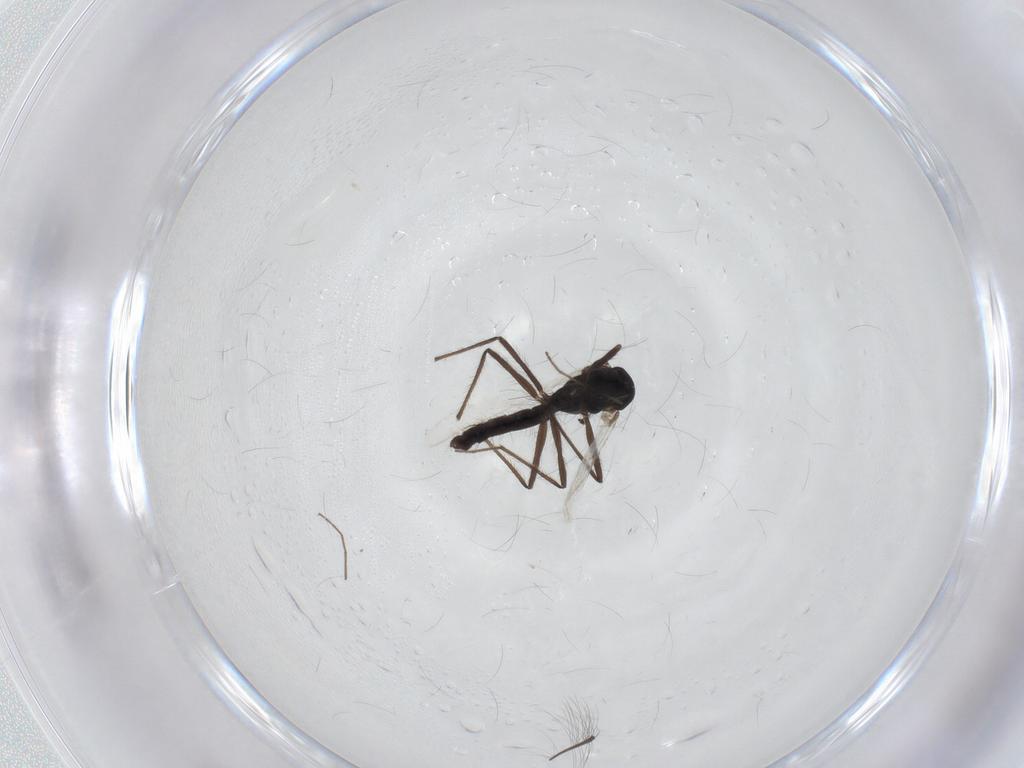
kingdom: Animalia
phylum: Arthropoda
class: Insecta
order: Diptera
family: Tachinidae
